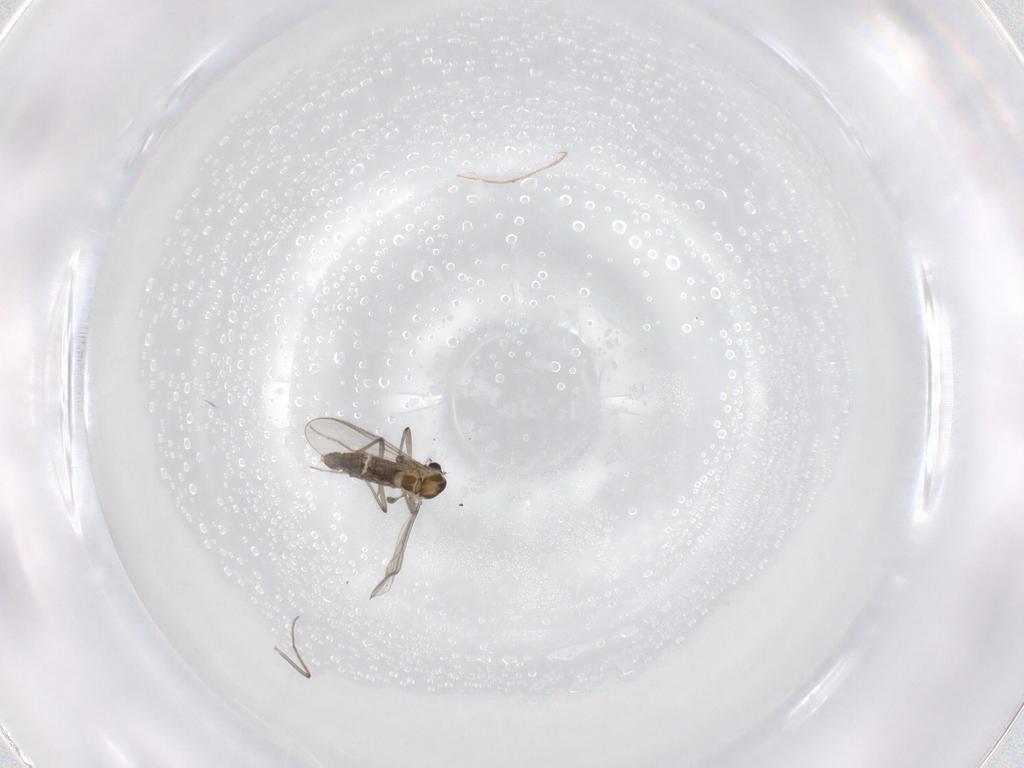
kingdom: Animalia
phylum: Arthropoda
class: Insecta
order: Diptera
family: Chironomidae
